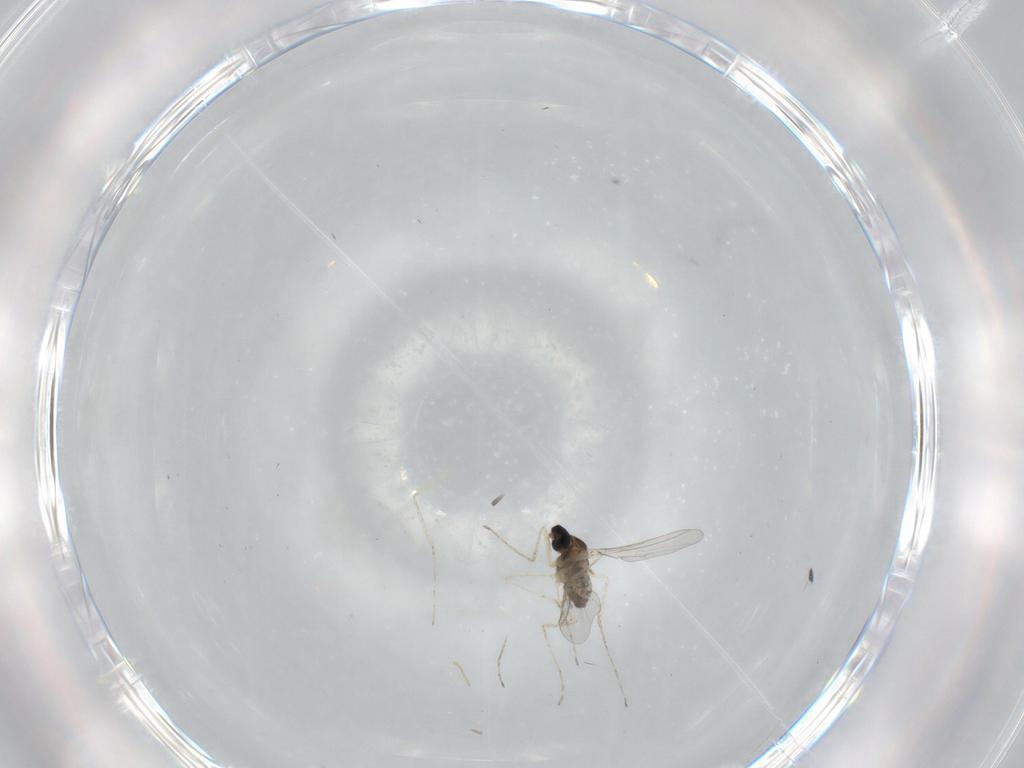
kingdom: Animalia
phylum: Arthropoda
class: Insecta
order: Diptera
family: Cecidomyiidae
